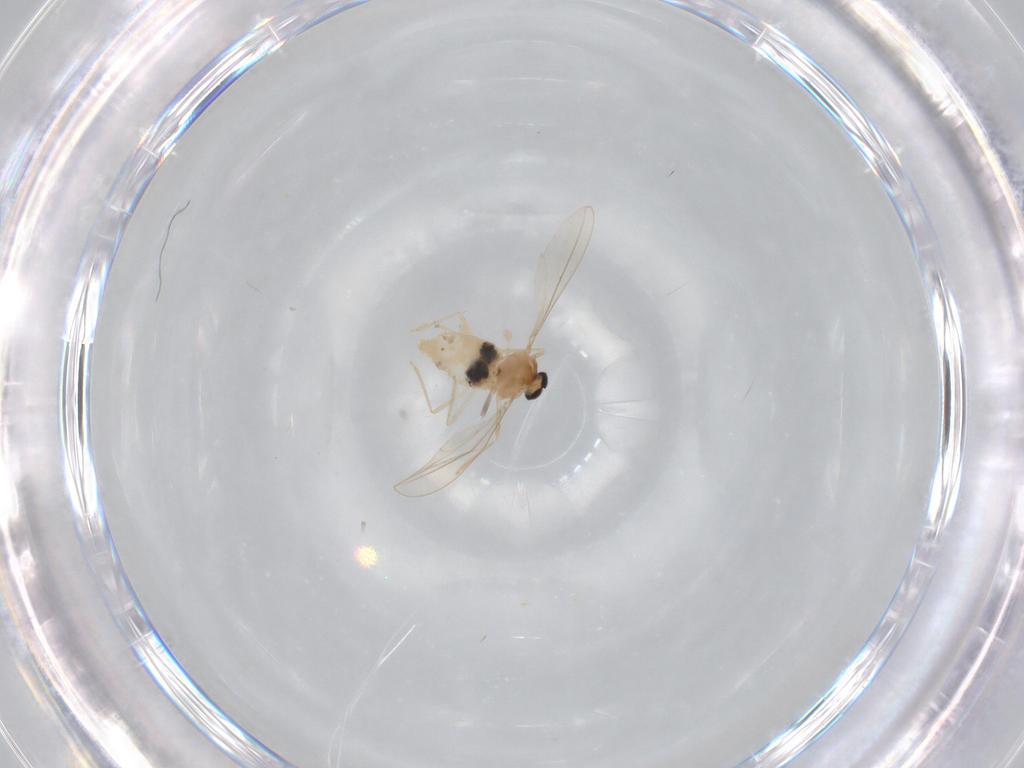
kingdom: Animalia
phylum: Arthropoda
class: Insecta
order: Diptera
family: Cecidomyiidae
